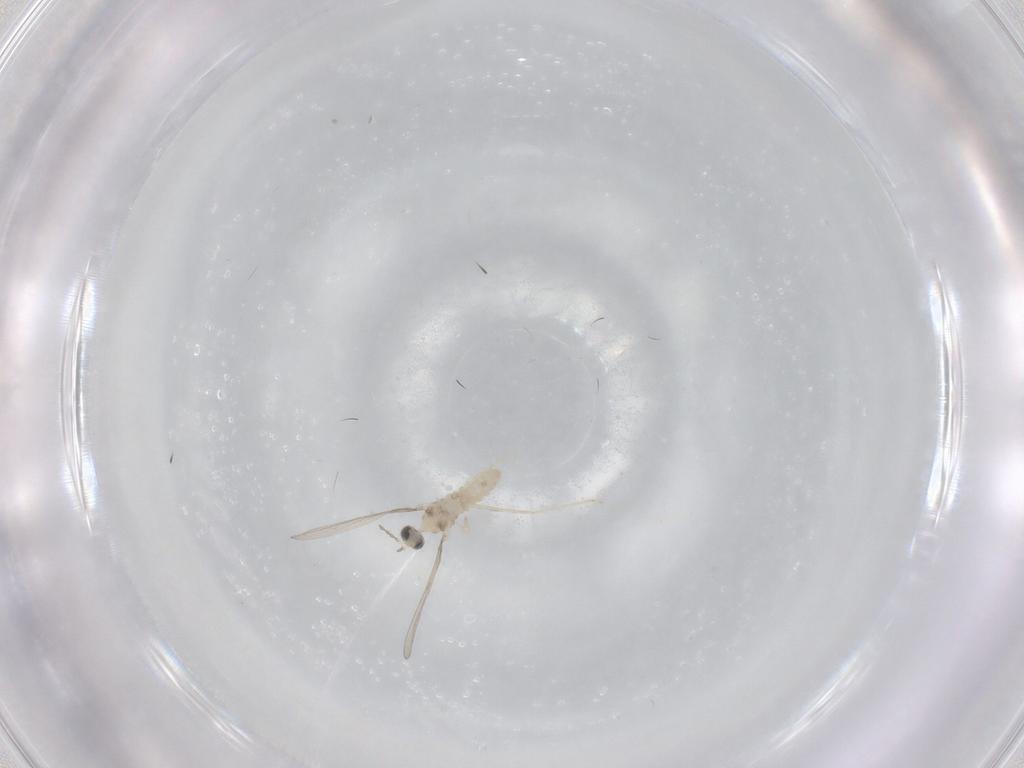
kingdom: Animalia
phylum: Arthropoda
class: Insecta
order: Diptera
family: Cecidomyiidae
